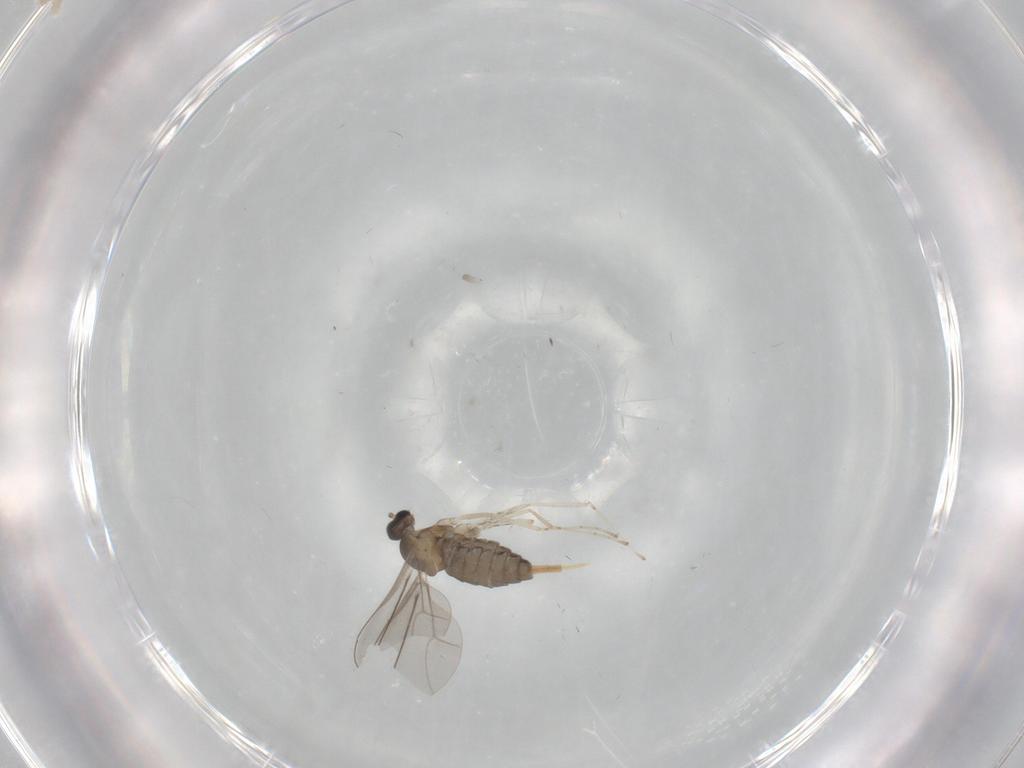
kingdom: Animalia
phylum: Arthropoda
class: Insecta
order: Diptera
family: Cecidomyiidae
